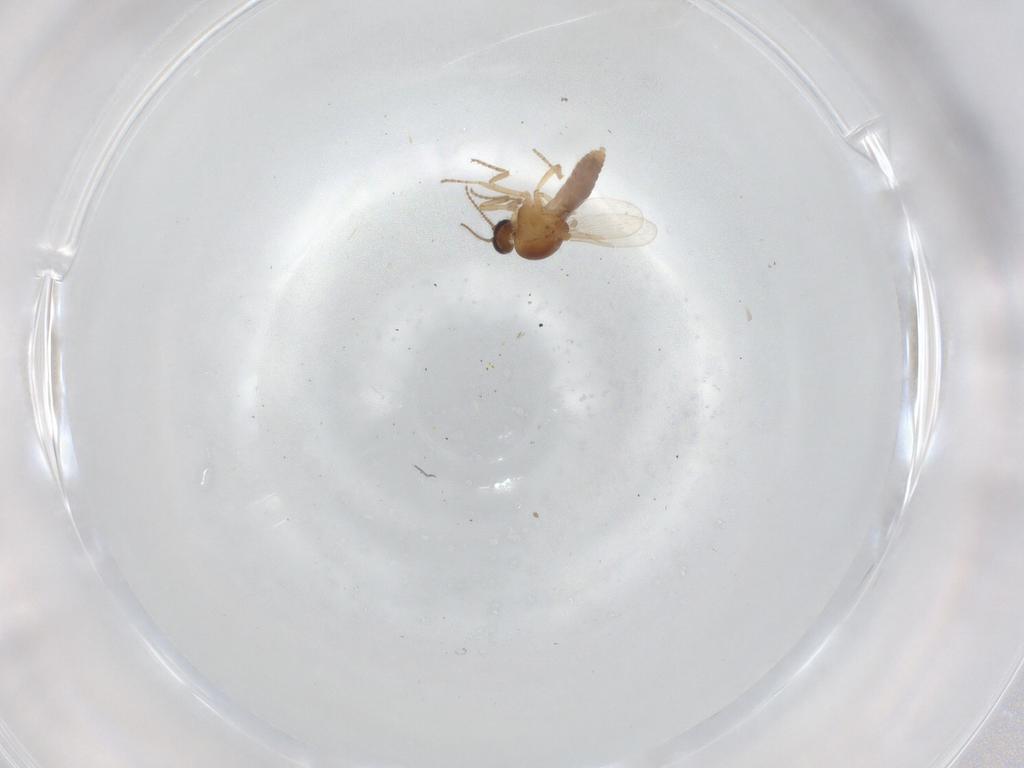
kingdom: Animalia
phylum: Arthropoda
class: Insecta
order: Diptera
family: Ceratopogonidae
